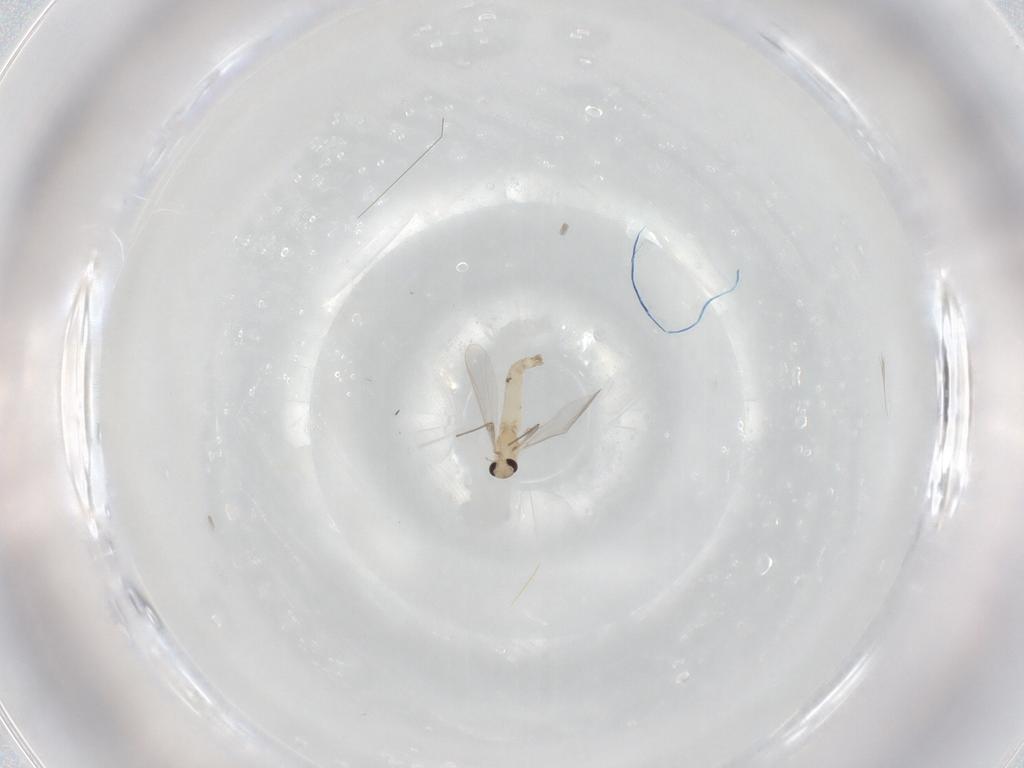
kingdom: Animalia
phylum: Arthropoda
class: Insecta
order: Diptera
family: Chironomidae
